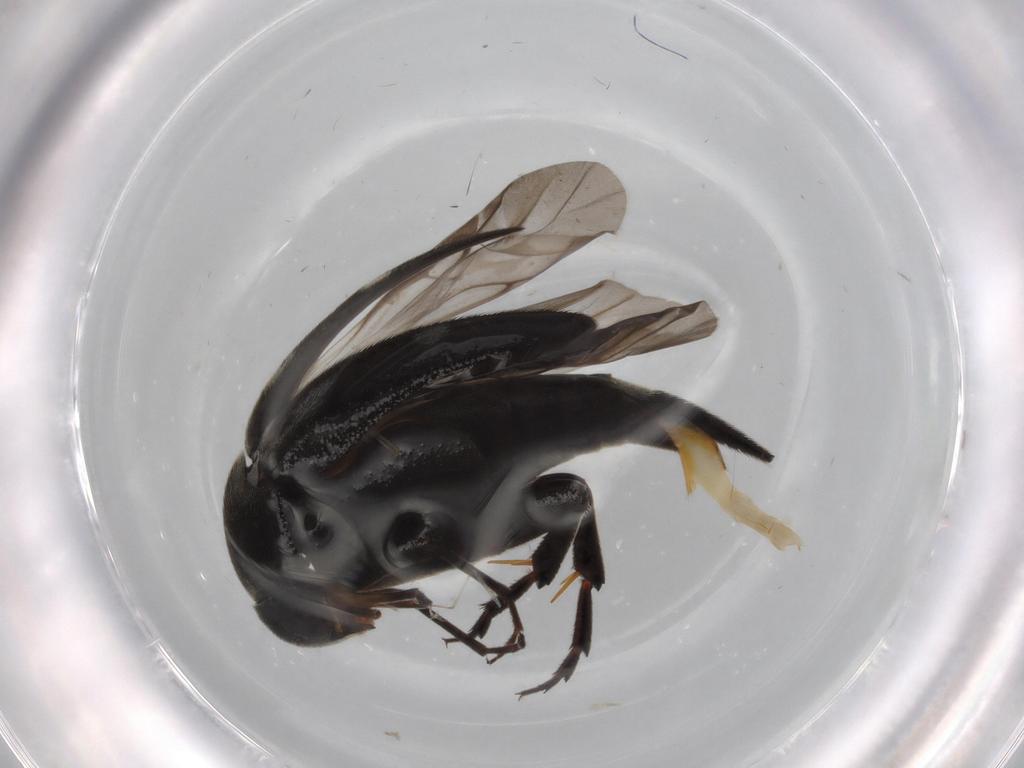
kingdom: Animalia
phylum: Arthropoda
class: Insecta
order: Coleoptera
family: Mordellidae
